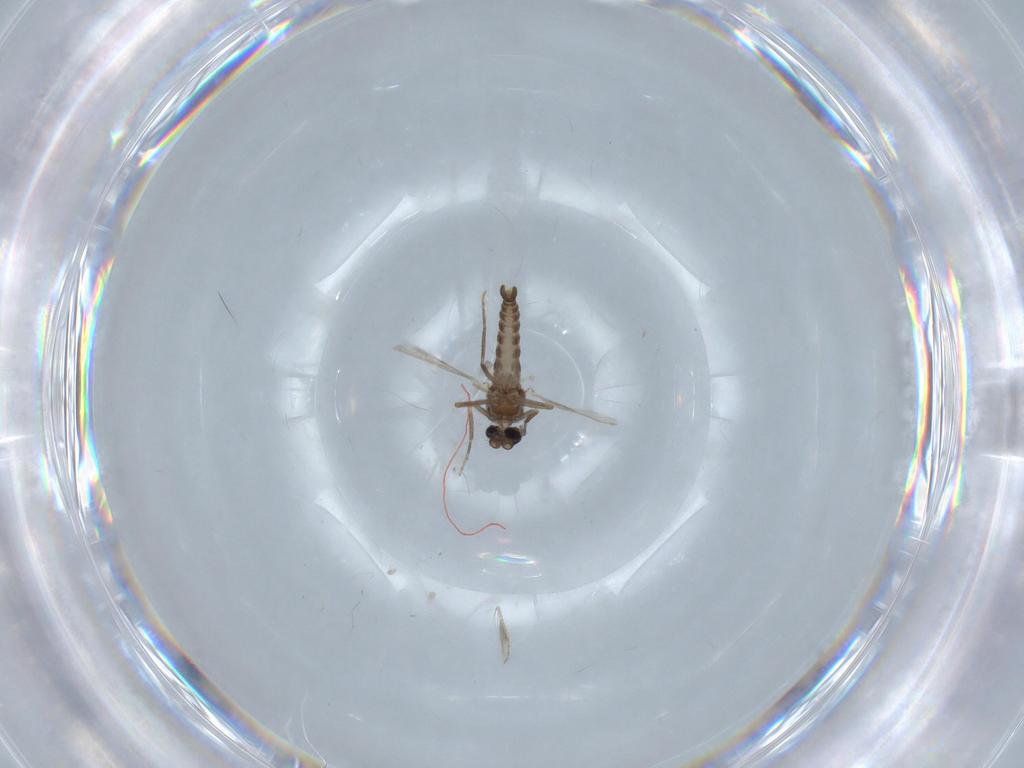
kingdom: Animalia
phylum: Arthropoda
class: Insecta
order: Diptera
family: Ceratopogonidae
